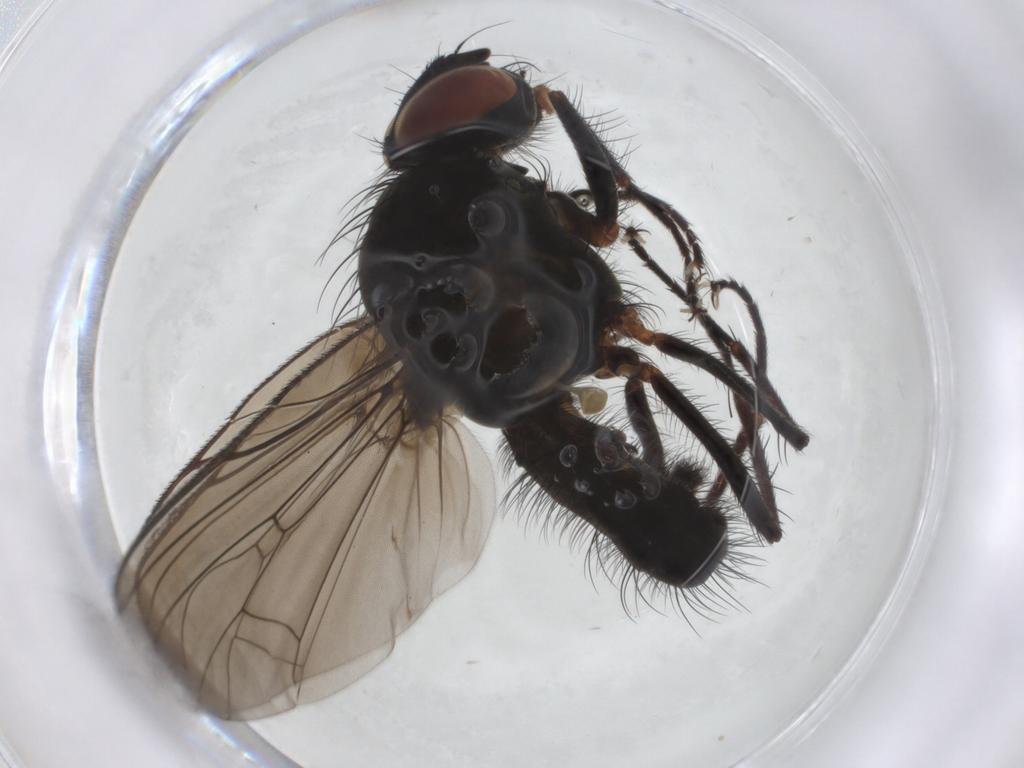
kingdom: Animalia
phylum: Arthropoda
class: Insecta
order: Diptera
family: Anthomyiidae
